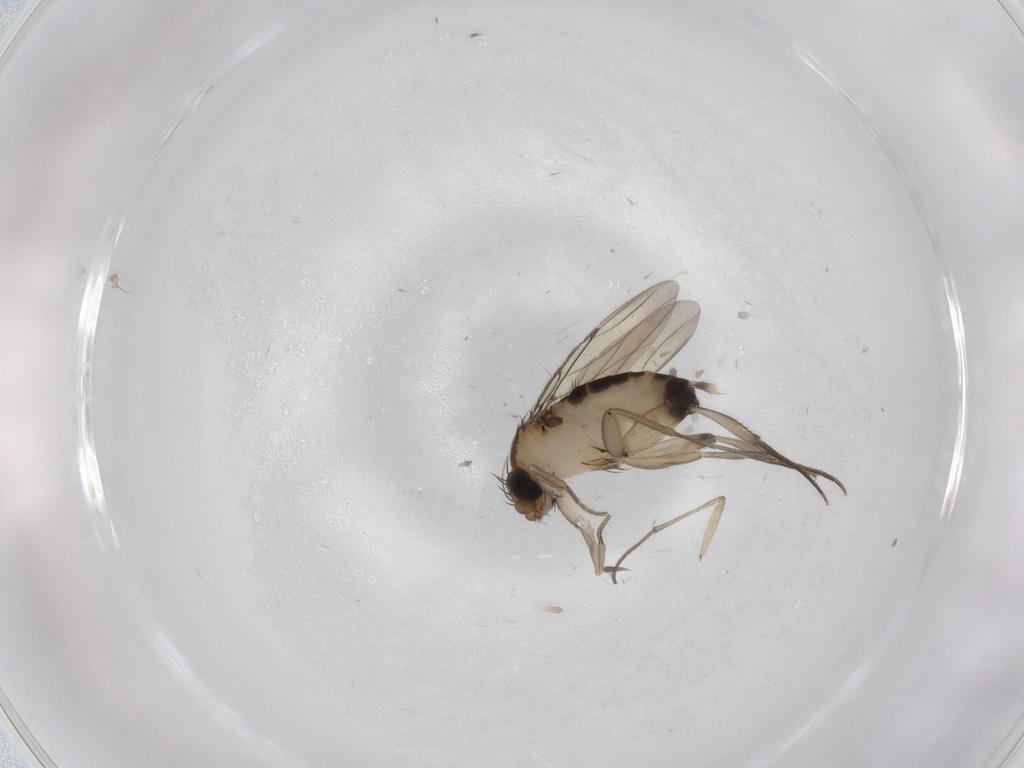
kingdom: Animalia
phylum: Arthropoda
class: Insecta
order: Diptera
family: Phoridae
